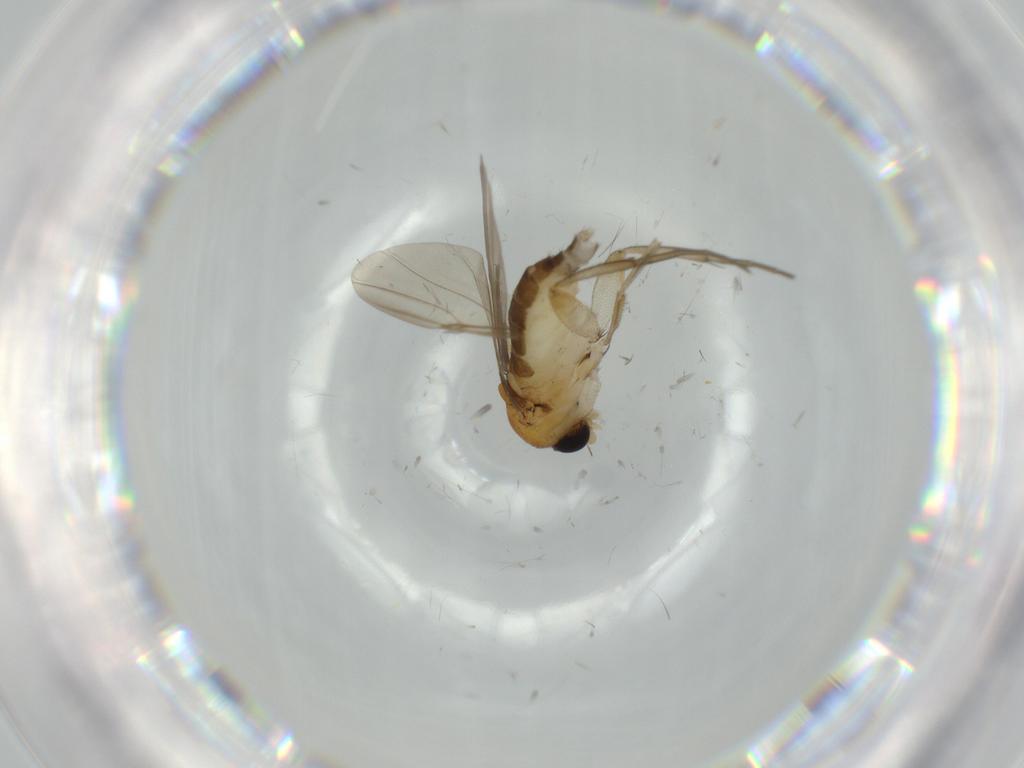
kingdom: Animalia
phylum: Arthropoda
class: Insecta
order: Diptera
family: Phoridae
